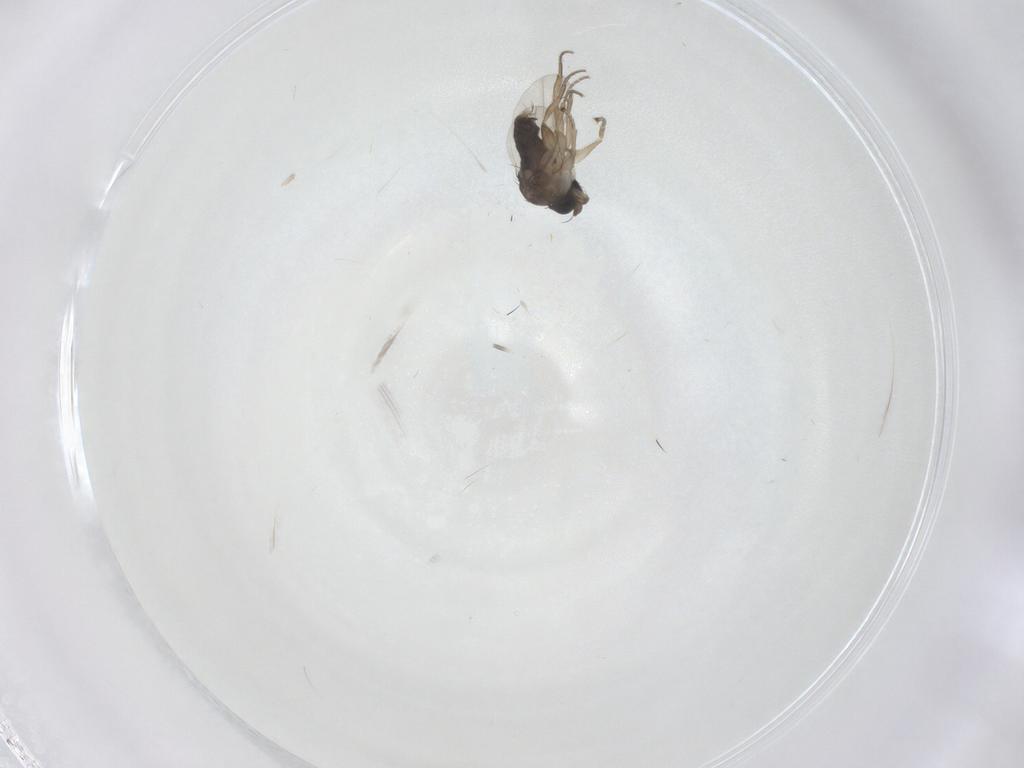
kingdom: Animalia
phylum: Arthropoda
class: Insecta
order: Diptera
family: Phoridae
